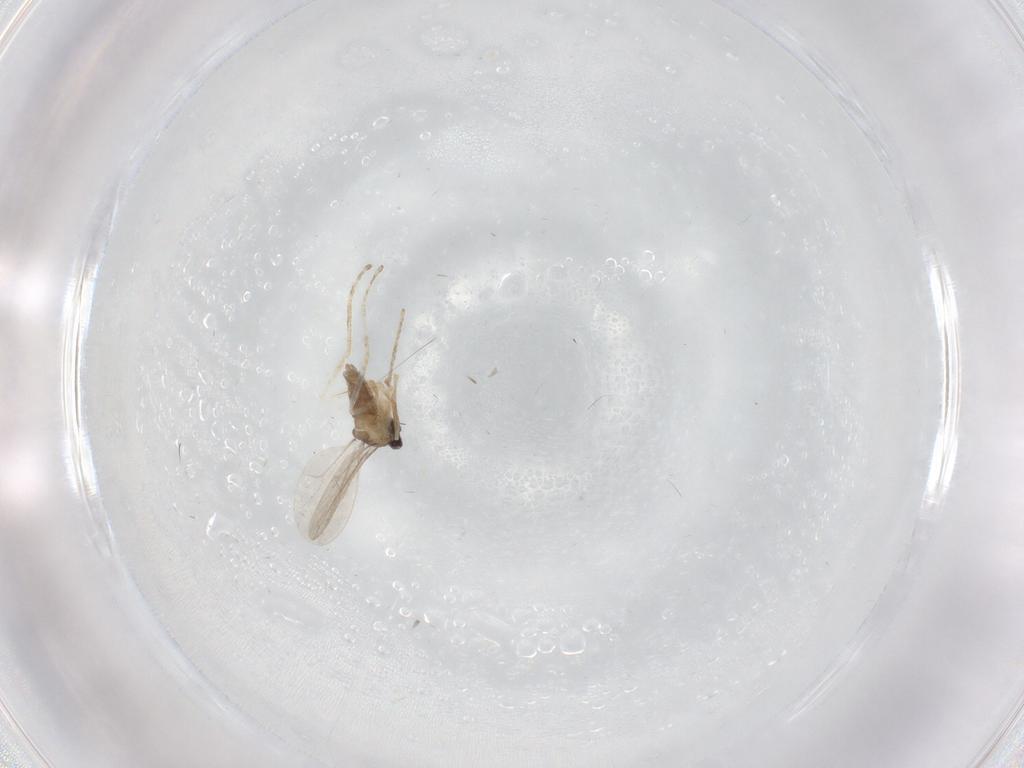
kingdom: Animalia
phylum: Arthropoda
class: Insecta
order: Diptera
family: Cecidomyiidae
